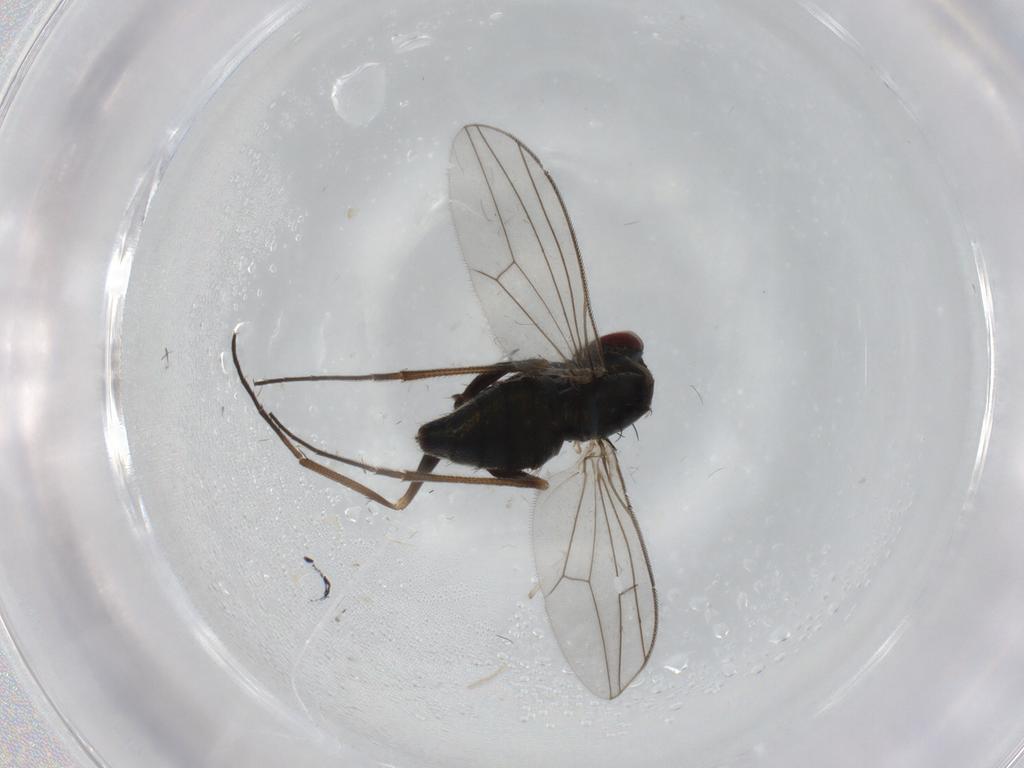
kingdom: Animalia
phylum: Arthropoda
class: Insecta
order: Diptera
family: Dolichopodidae
